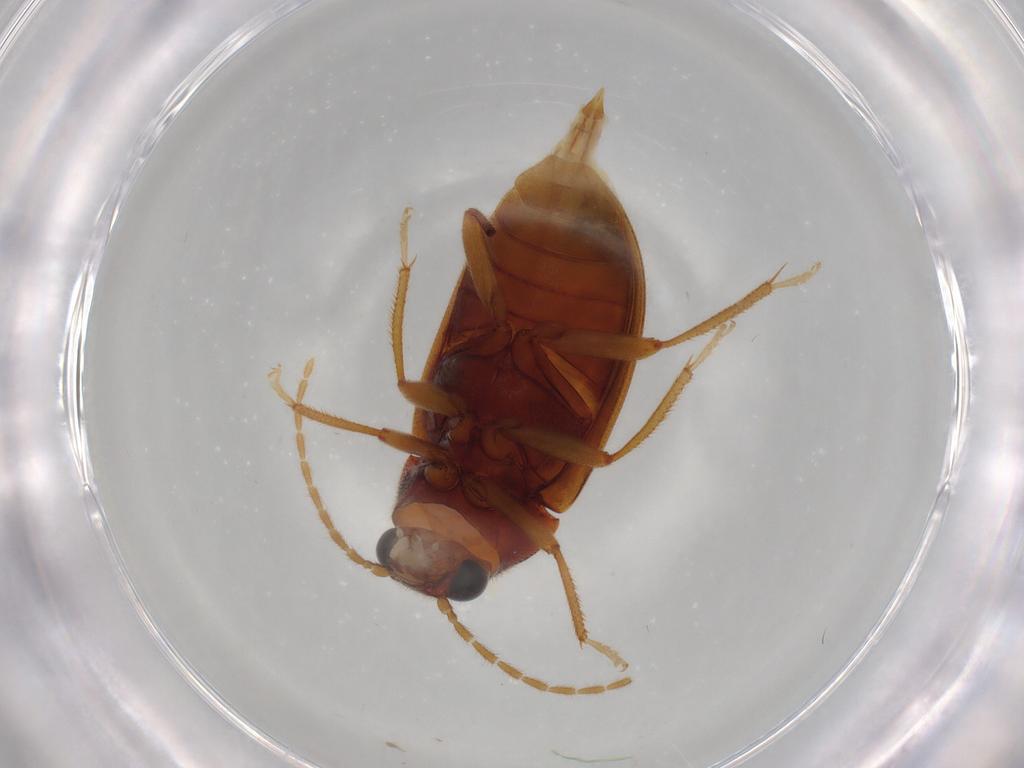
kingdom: Animalia
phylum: Arthropoda
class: Insecta
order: Coleoptera
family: Ptilodactylidae
